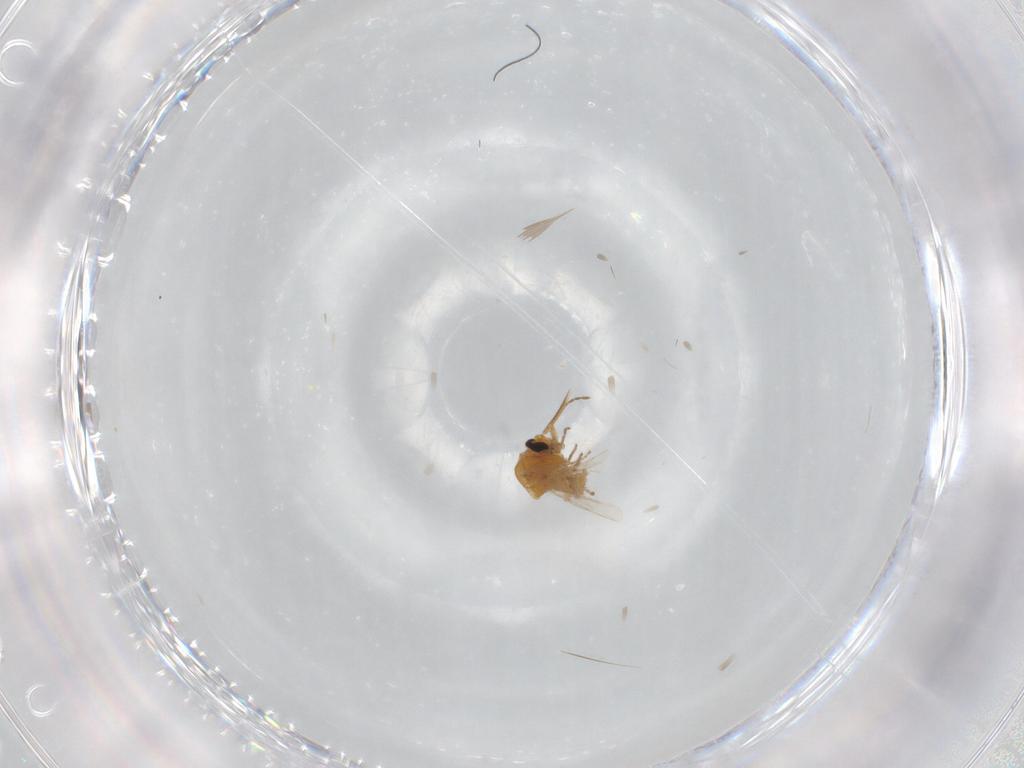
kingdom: Animalia
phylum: Arthropoda
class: Insecta
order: Diptera
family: Ceratopogonidae
